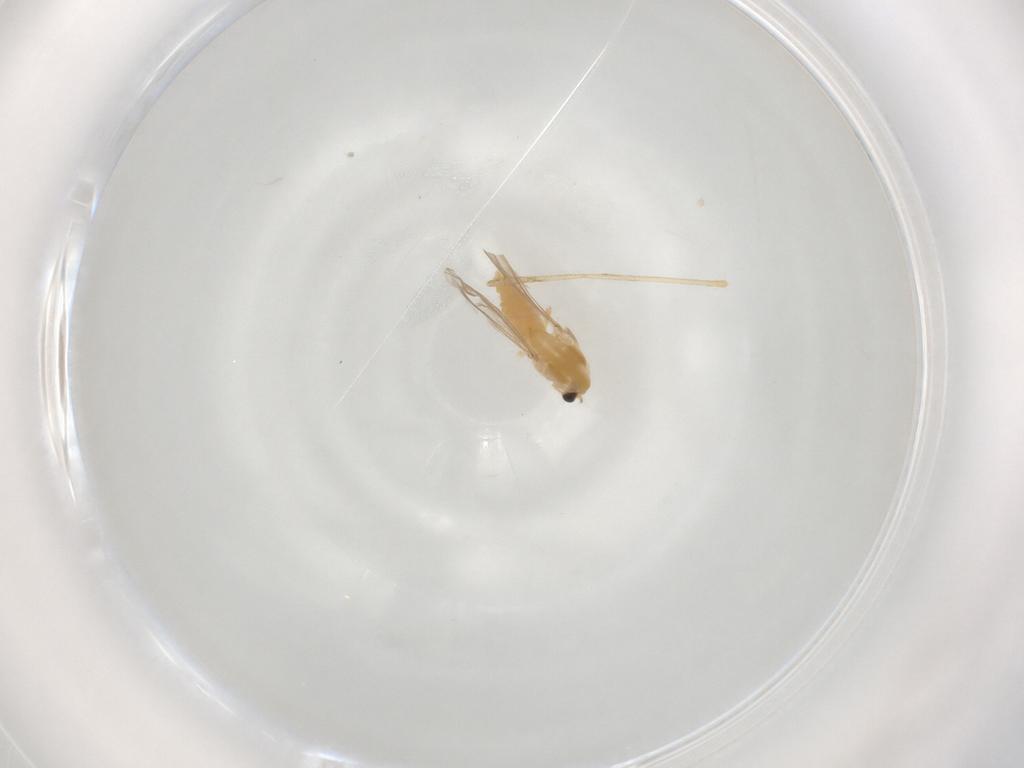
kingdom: Animalia
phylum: Arthropoda
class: Insecta
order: Diptera
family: Chironomidae
